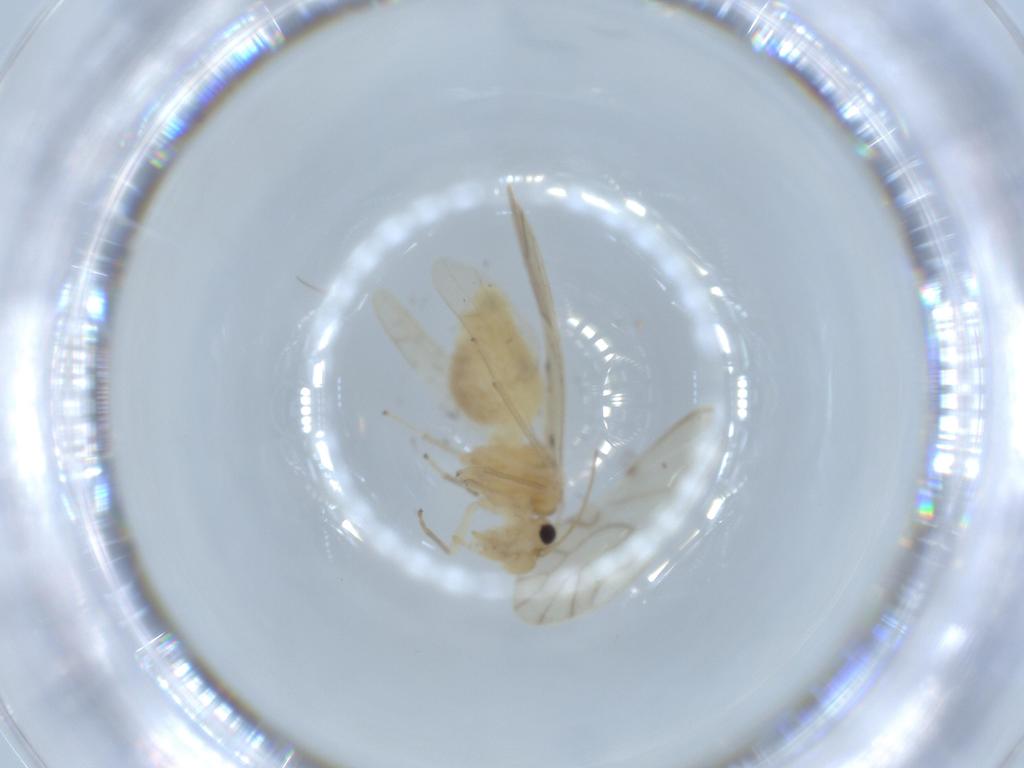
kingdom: Animalia
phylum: Arthropoda
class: Insecta
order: Psocodea
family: Caeciliusidae
